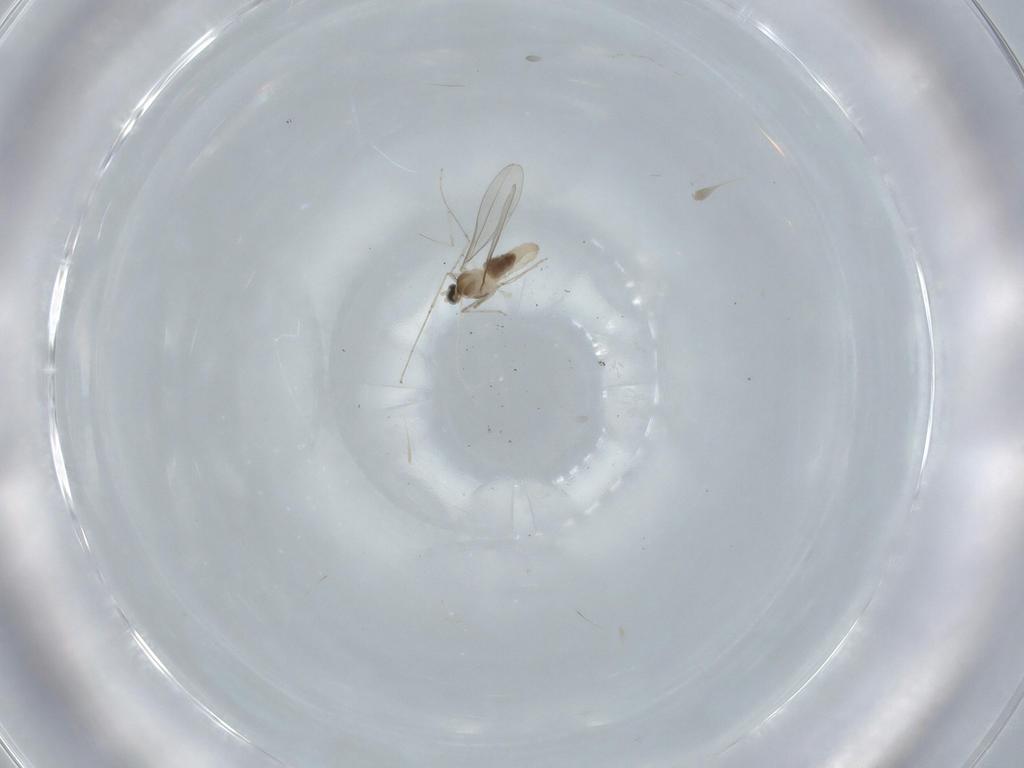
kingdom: Animalia
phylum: Arthropoda
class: Insecta
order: Diptera
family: Cecidomyiidae
